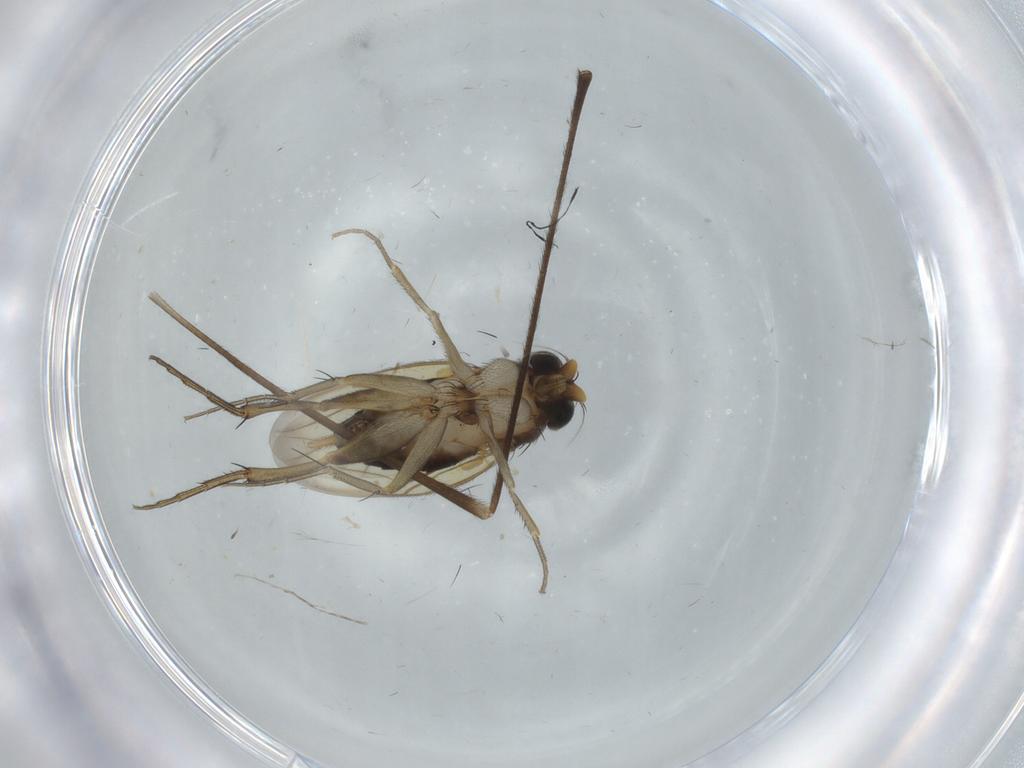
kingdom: Animalia
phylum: Arthropoda
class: Insecta
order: Diptera
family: Limoniidae
